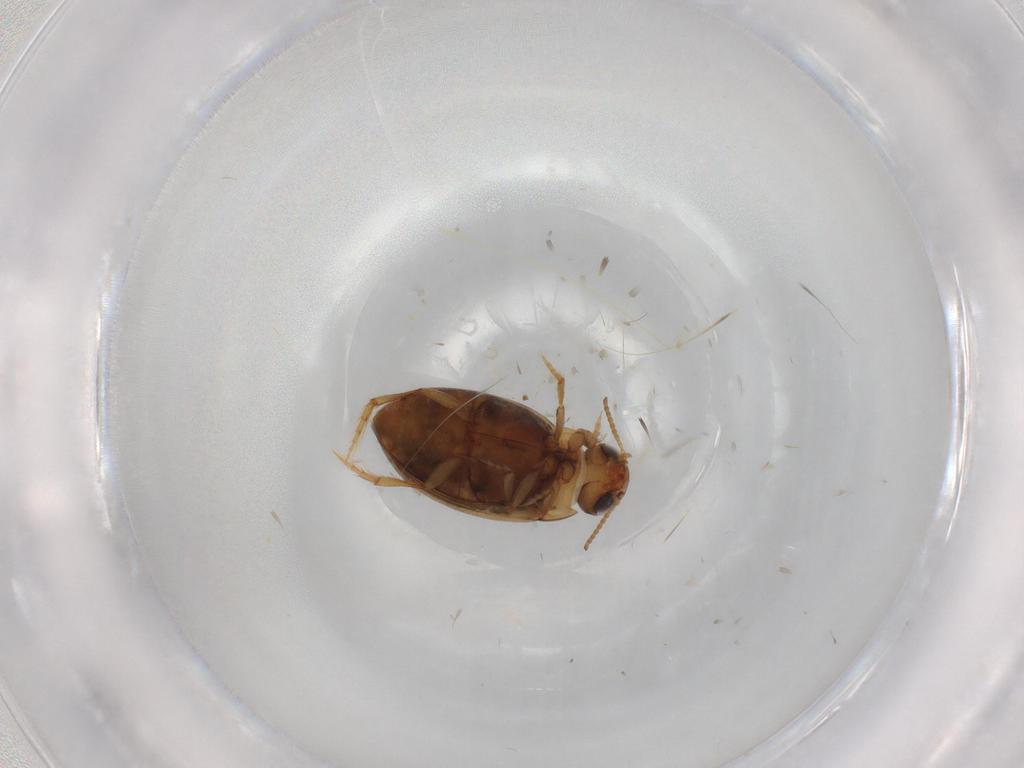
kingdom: Animalia
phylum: Arthropoda
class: Insecta
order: Coleoptera
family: Dytiscidae
